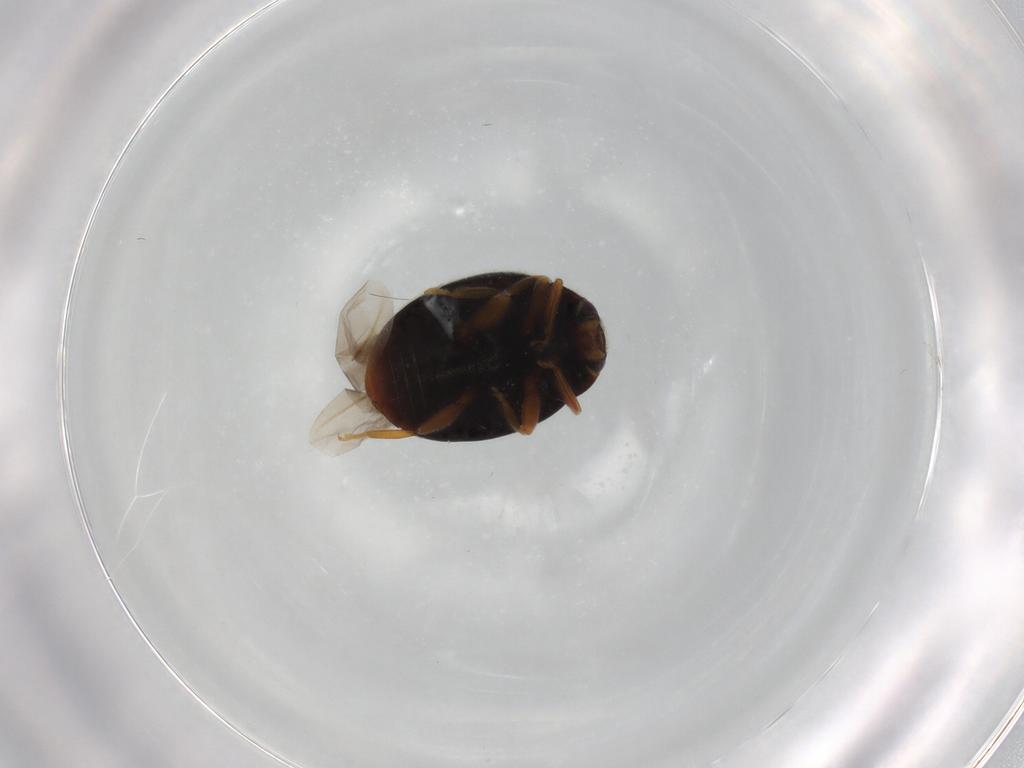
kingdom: Animalia
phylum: Arthropoda
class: Insecta
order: Coleoptera
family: Coccinellidae
